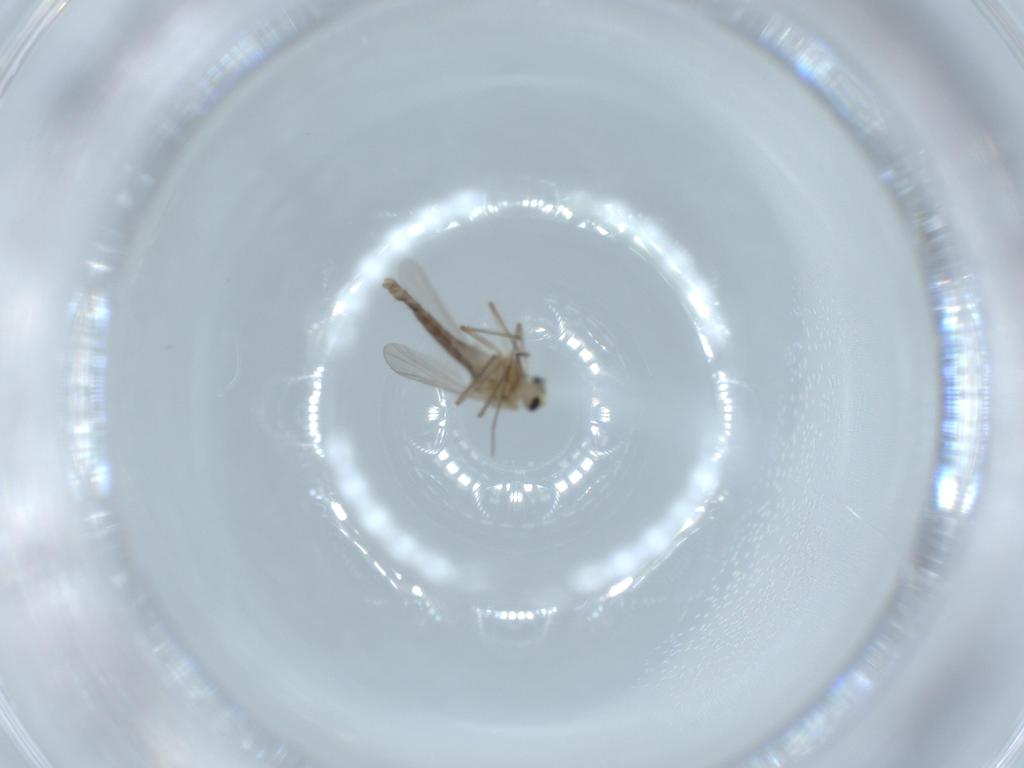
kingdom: Animalia
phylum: Arthropoda
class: Insecta
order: Diptera
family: Chironomidae
